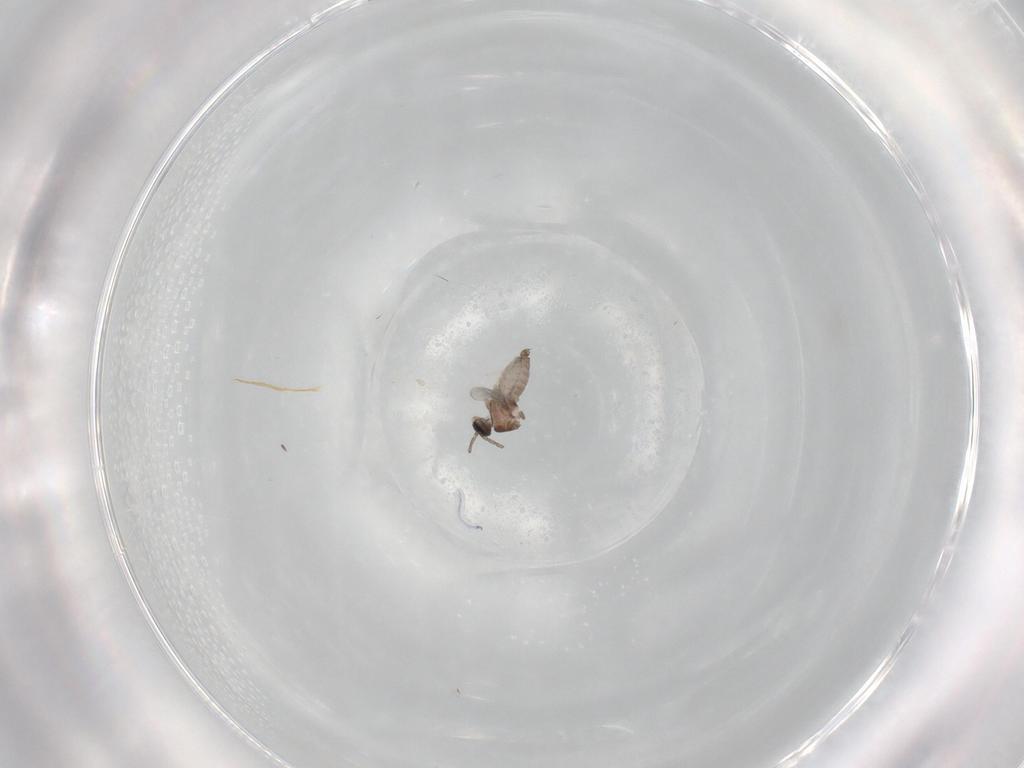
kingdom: Animalia
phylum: Arthropoda
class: Insecta
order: Diptera
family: Cecidomyiidae
